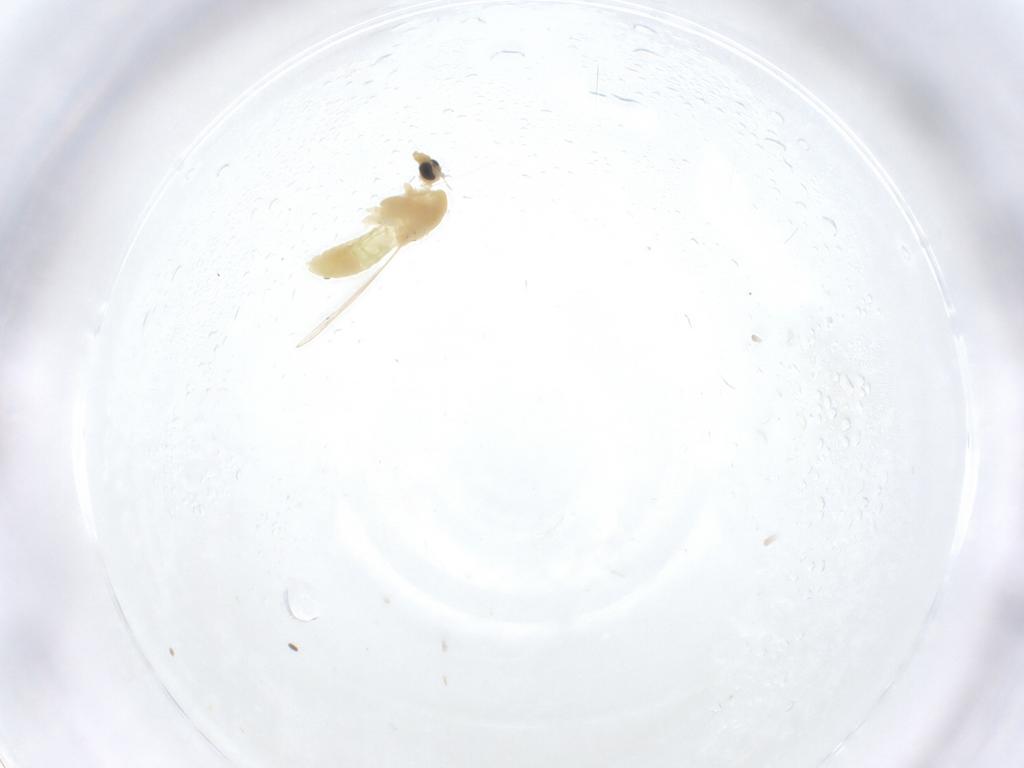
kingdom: Animalia
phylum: Arthropoda
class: Insecta
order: Diptera
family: Chironomidae
